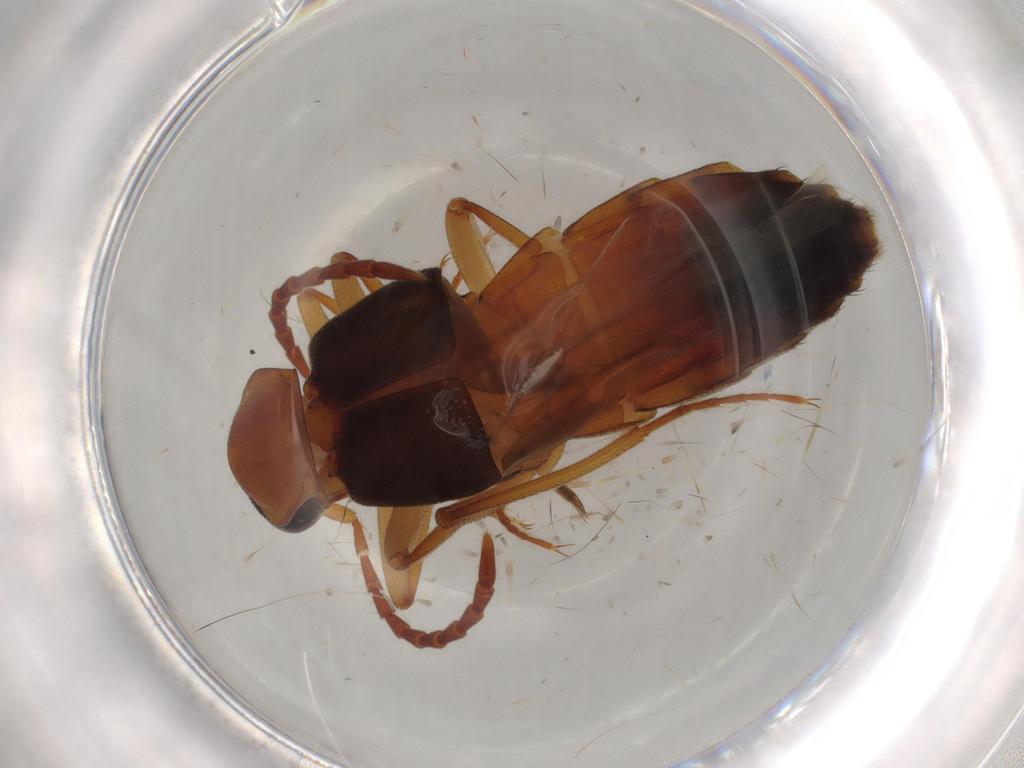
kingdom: Animalia
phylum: Arthropoda
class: Insecta
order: Coleoptera
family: Staphylinidae
